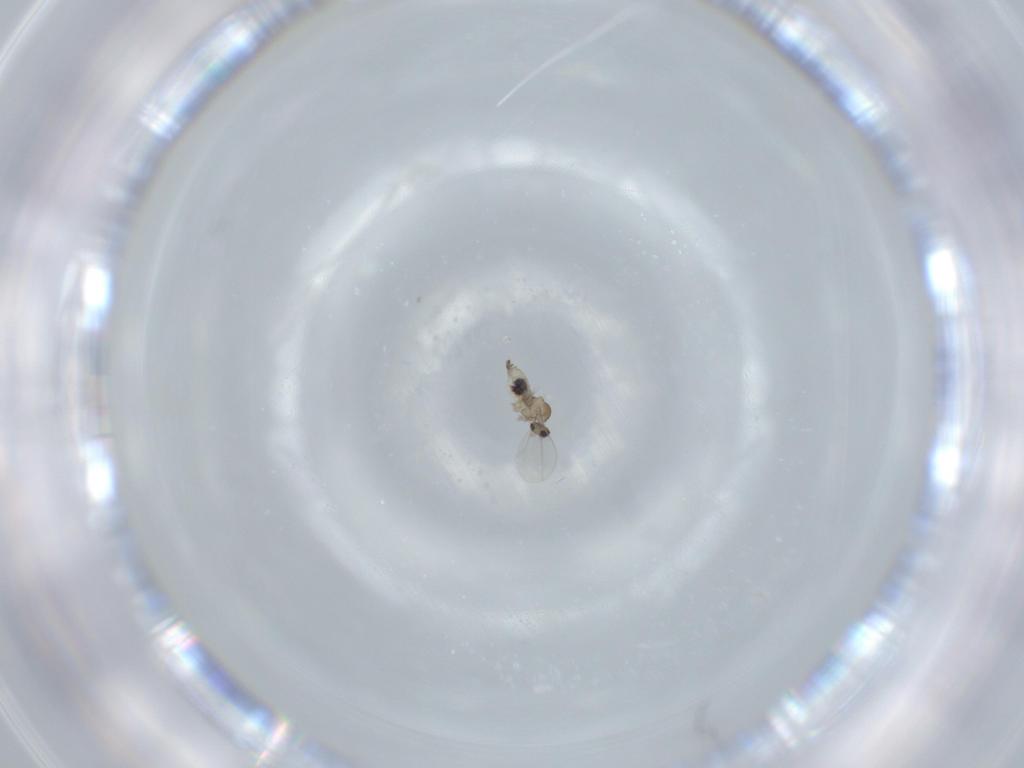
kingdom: Animalia
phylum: Arthropoda
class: Insecta
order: Diptera
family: Cecidomyiidae
